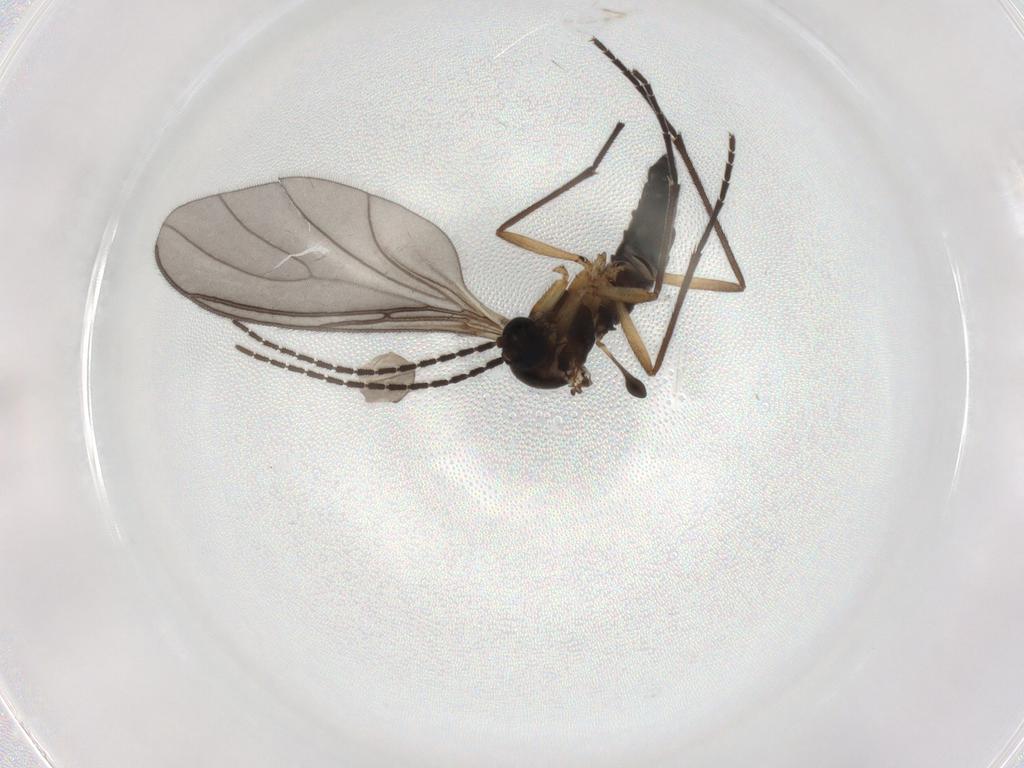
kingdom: Animalia
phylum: Arthropoda
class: Insecta
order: Diptera
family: Sciaridae
